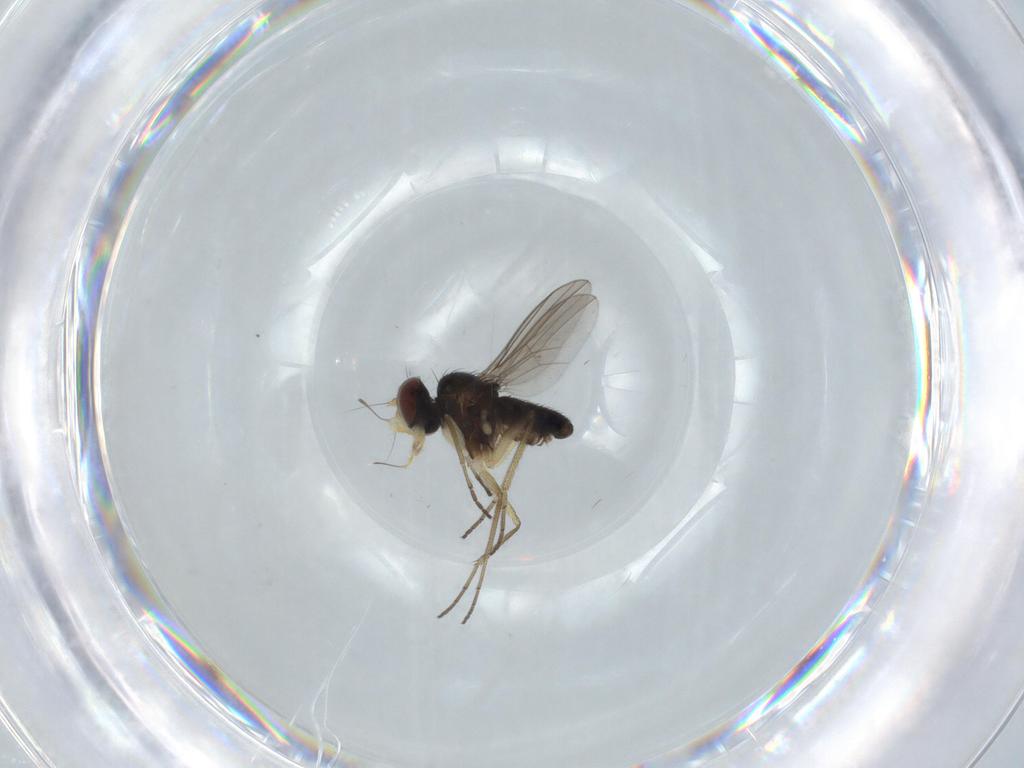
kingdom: Animalia
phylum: Arthropoda
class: Insecta
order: Diptera
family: Dolichopodidae
